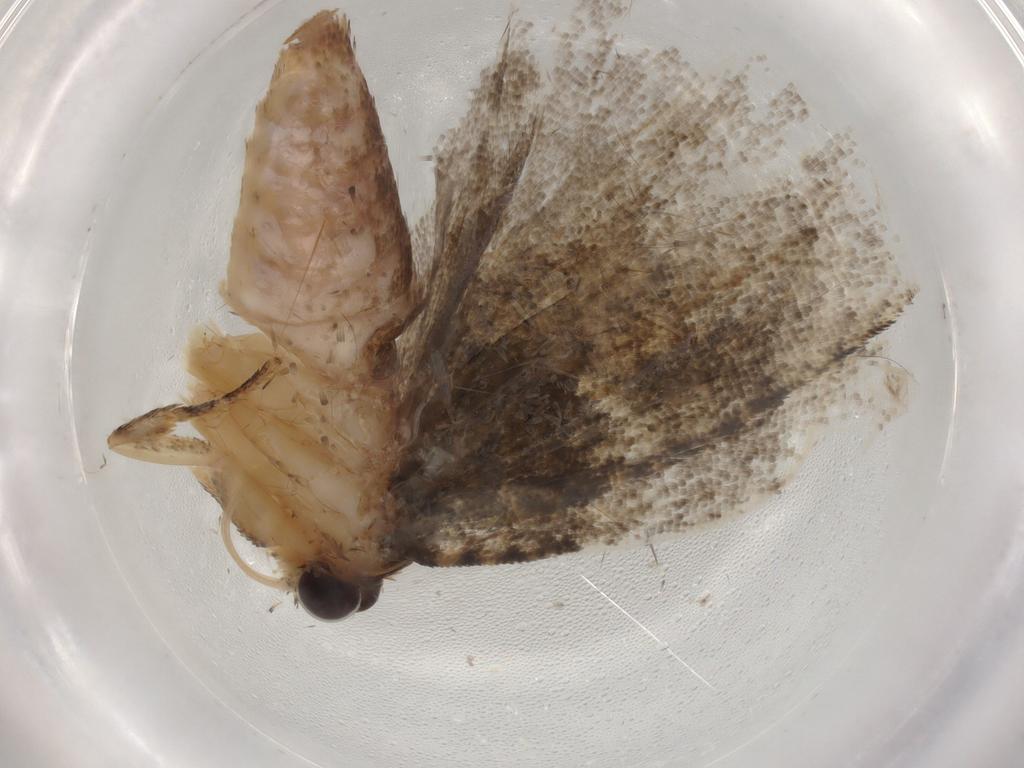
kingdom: Animalia
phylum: Arthropoda
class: Insecta
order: Lepidoptera
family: Tortricidae
